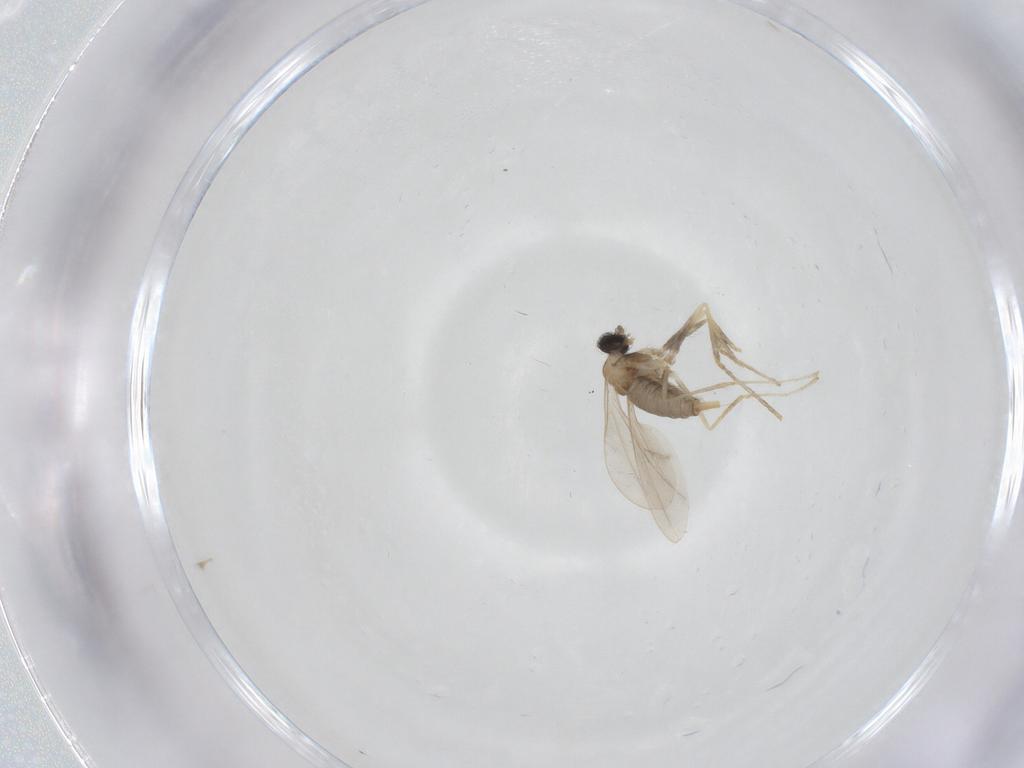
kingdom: Animalia
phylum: Arthropoda
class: Insecta
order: Diptera
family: Cecidomyiidae
